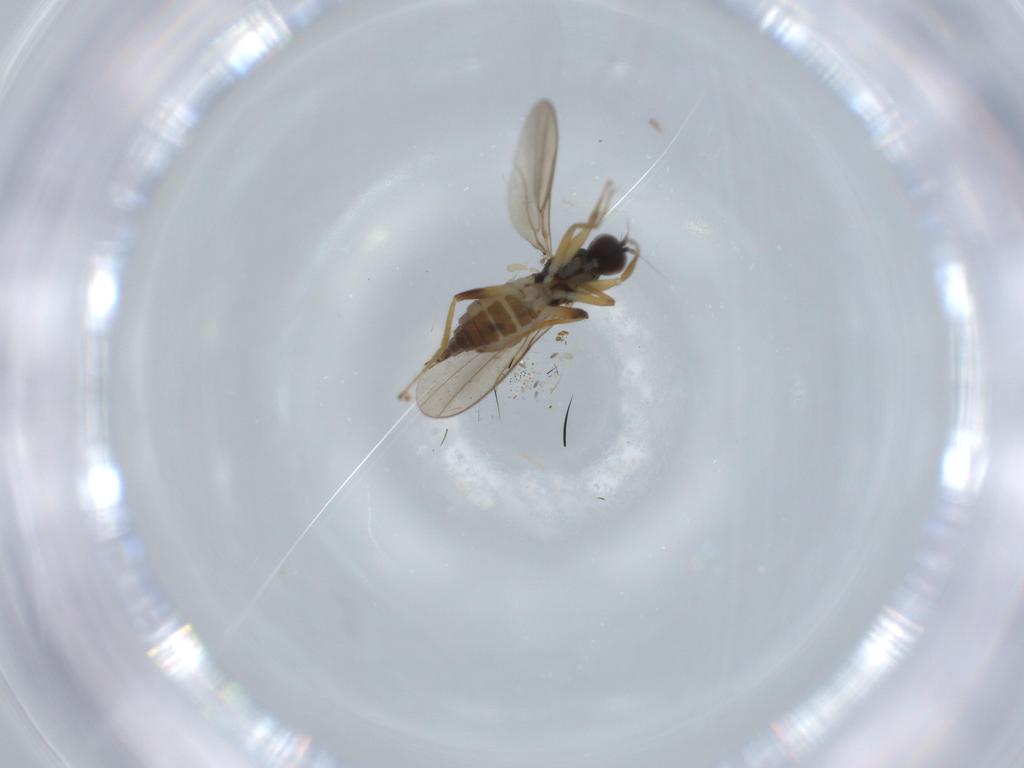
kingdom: Animalia
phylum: Arthropoda
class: Insecta
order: Diptera
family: Hybotidae
